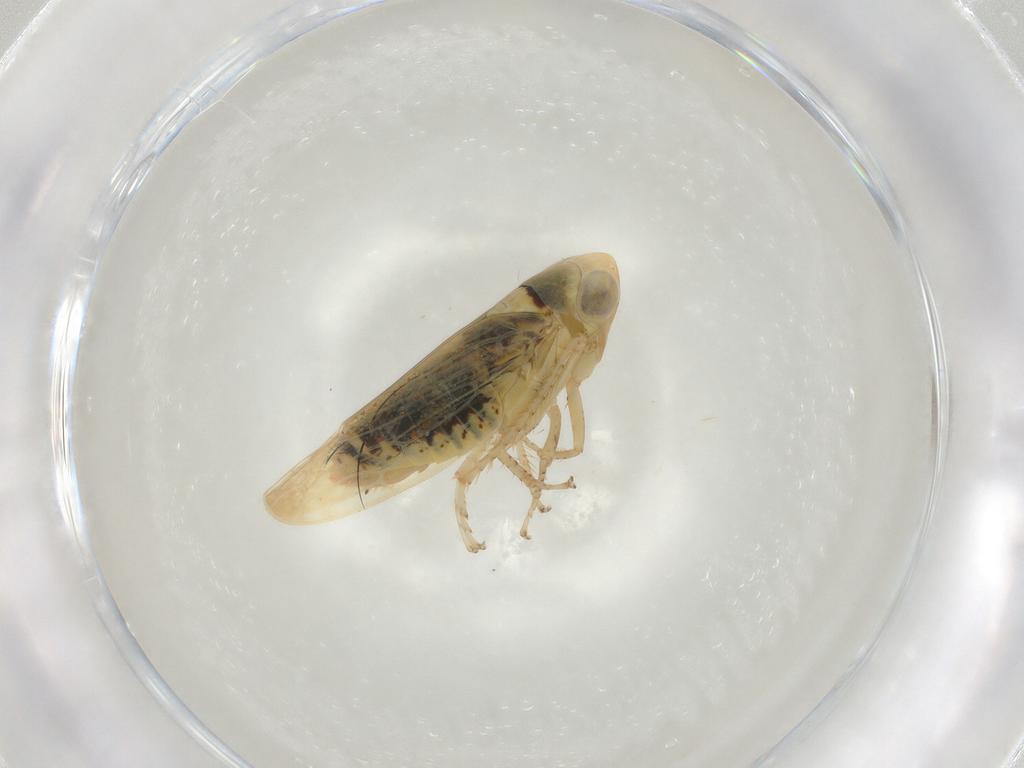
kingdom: Animalia
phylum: Arthropoda
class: Insecta
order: Hemiptera
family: Cicadellidae
